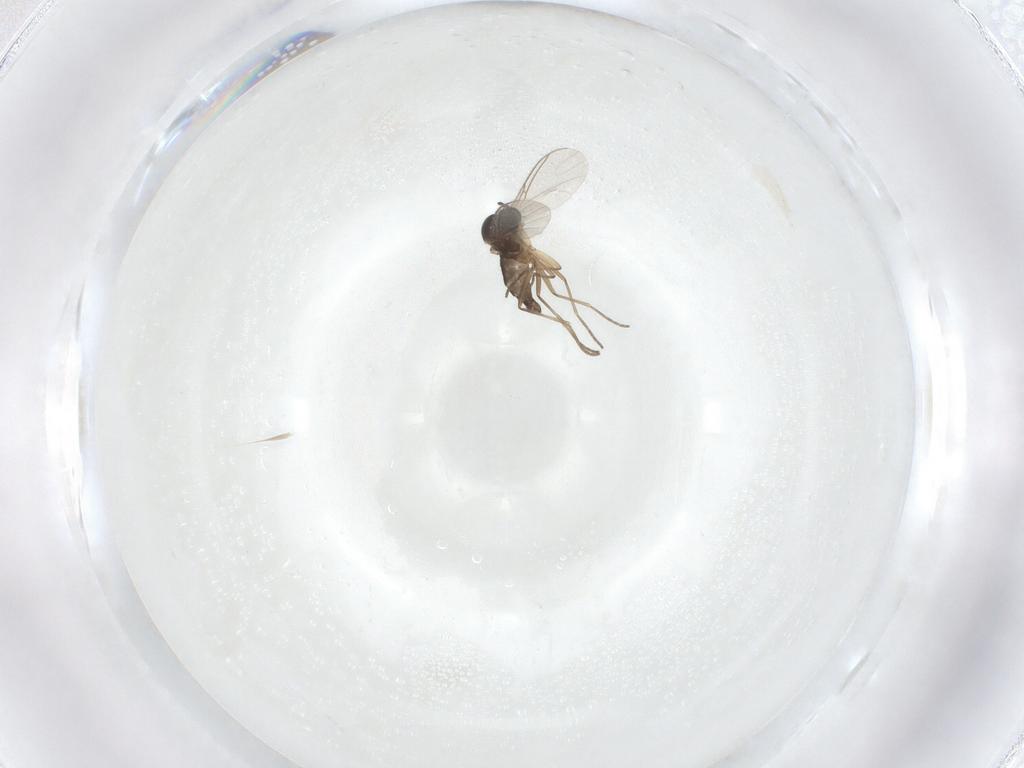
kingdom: Animalia
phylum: Arthropoda
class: Insecta
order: Diptera
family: Sciaridae
